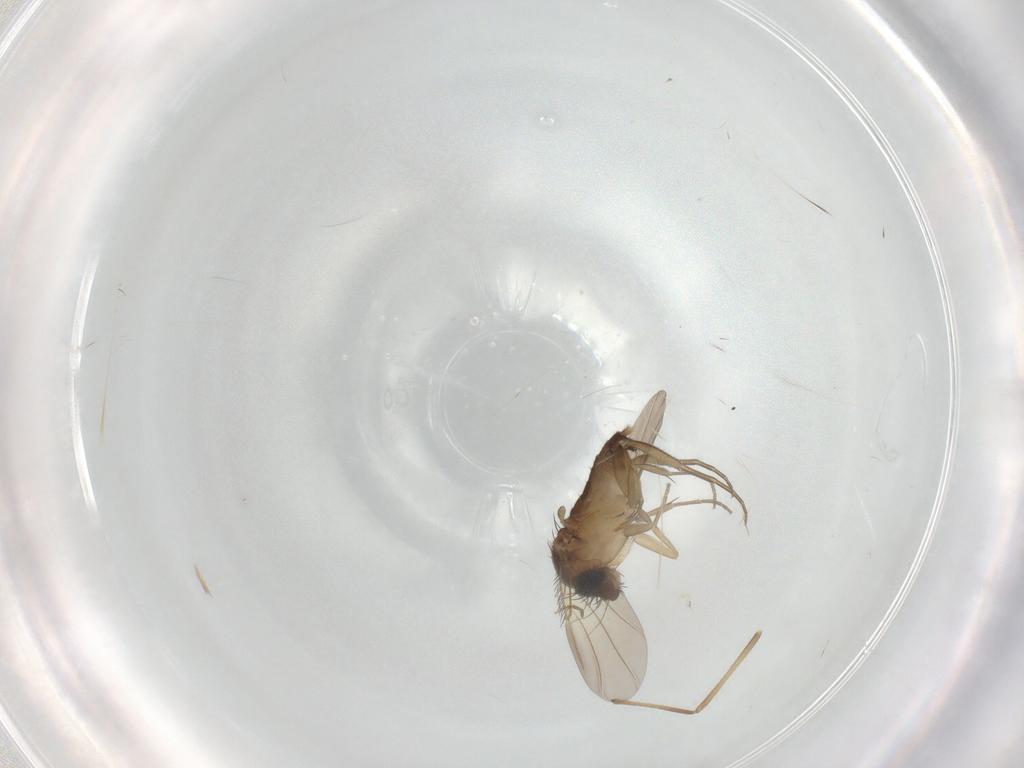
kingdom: Animalia
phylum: Arthropoda
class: Insecta
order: Diptera
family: Phoridae
